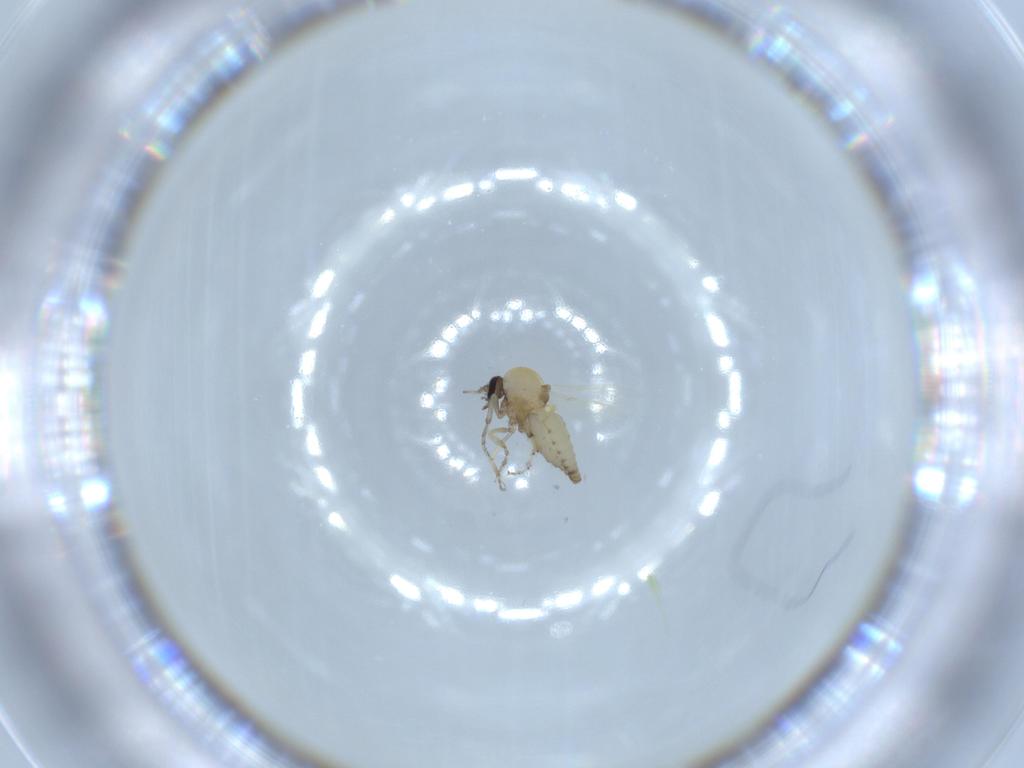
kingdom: Animalia
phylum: Arthropoda
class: Insecta
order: Diptera
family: Ceratopogonidae
